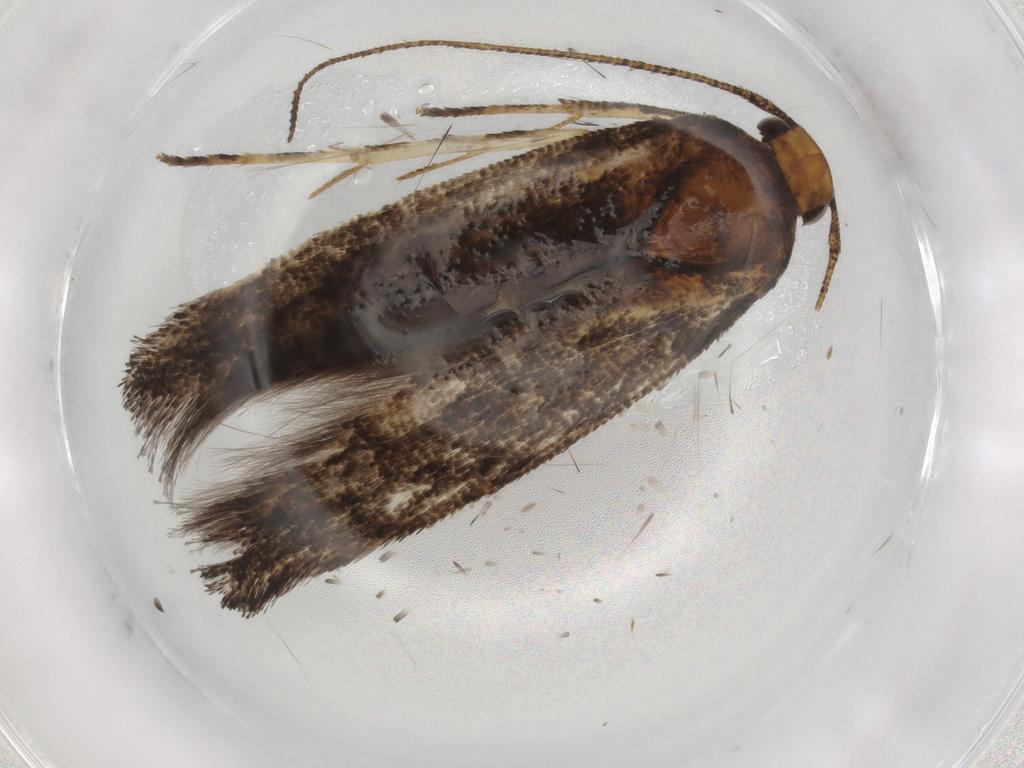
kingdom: Animalia
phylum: Arthropoda
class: Insecta
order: Lepidoptera
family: Cosmopterigidae
